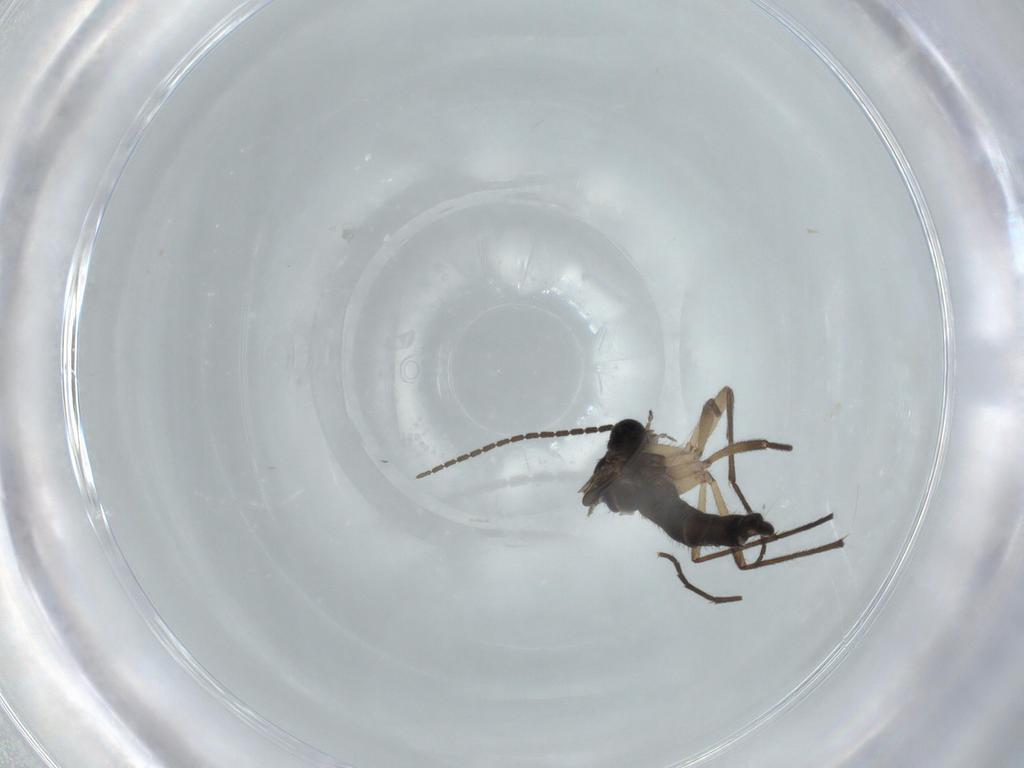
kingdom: Animalia
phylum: Arthropoda
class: Insecta
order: Diptera
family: Sciaridae
